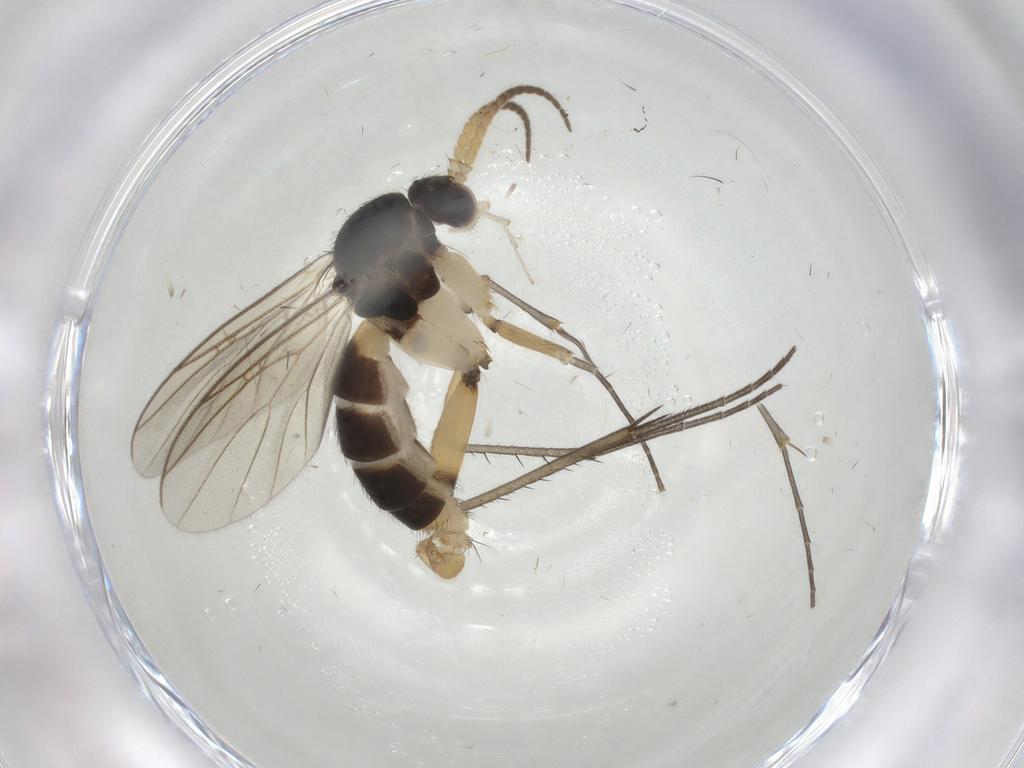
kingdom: Animalia
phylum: Arthropoda
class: Insecta
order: Diptera
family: Mycetophilidae
